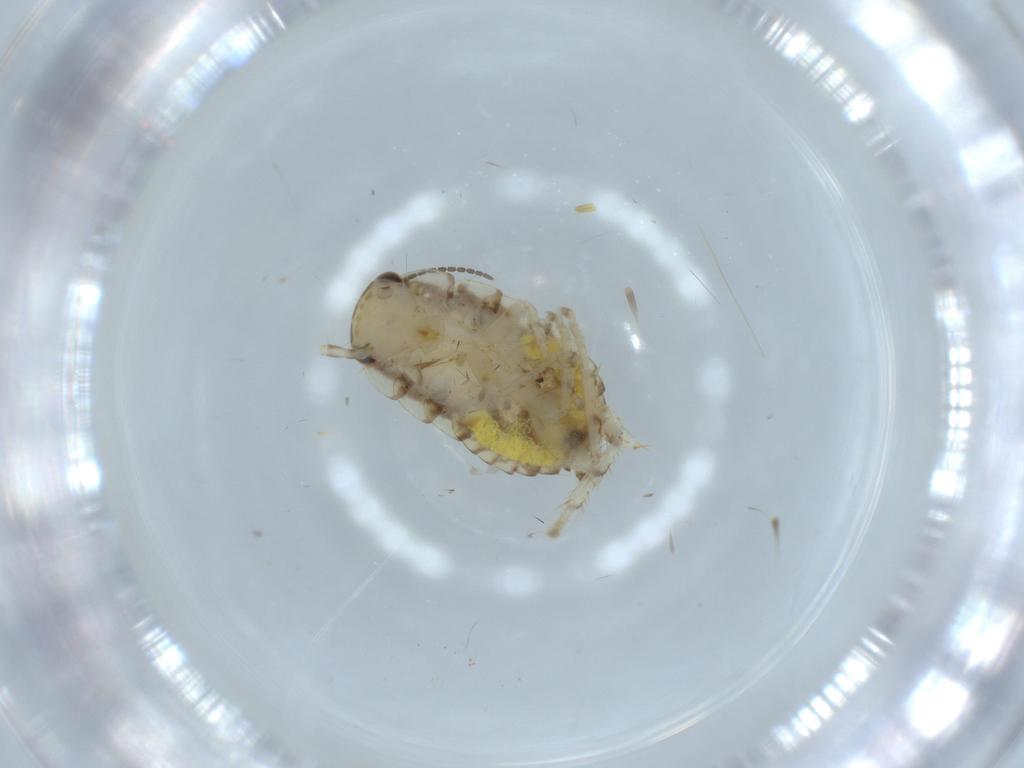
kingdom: Animalia
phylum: Arthropoda
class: Insecta
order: Blattodea
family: Ectobiidae
